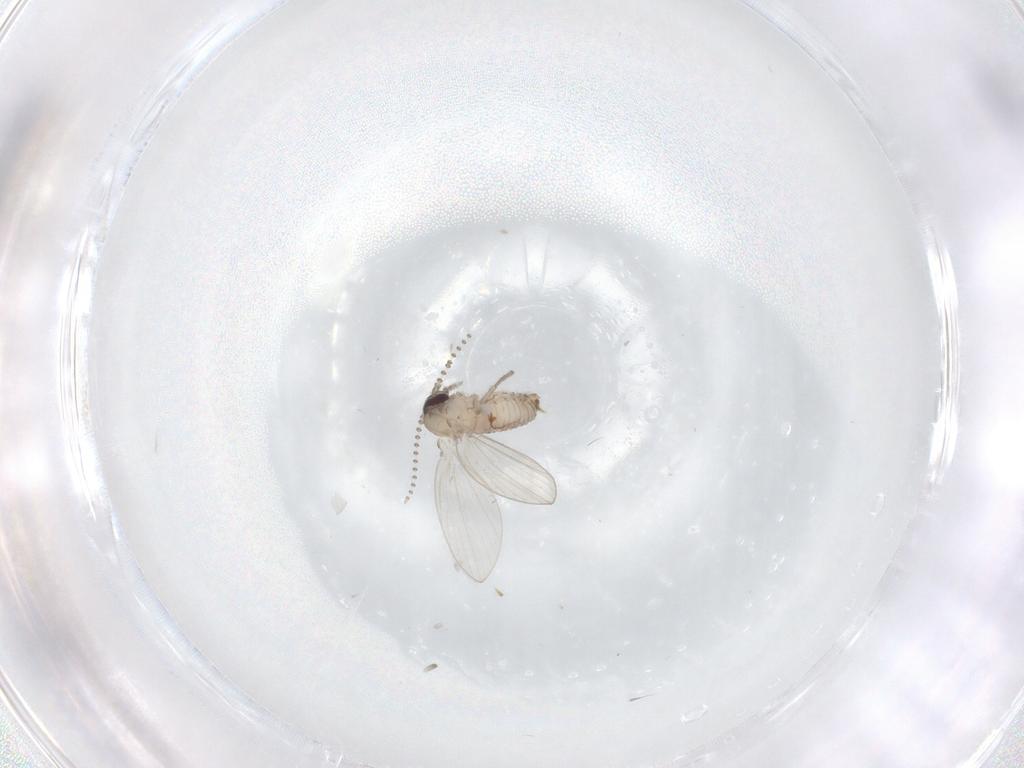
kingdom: Animalia
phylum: Arthropoda
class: Insecta
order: Diptera
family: Psychodidae
